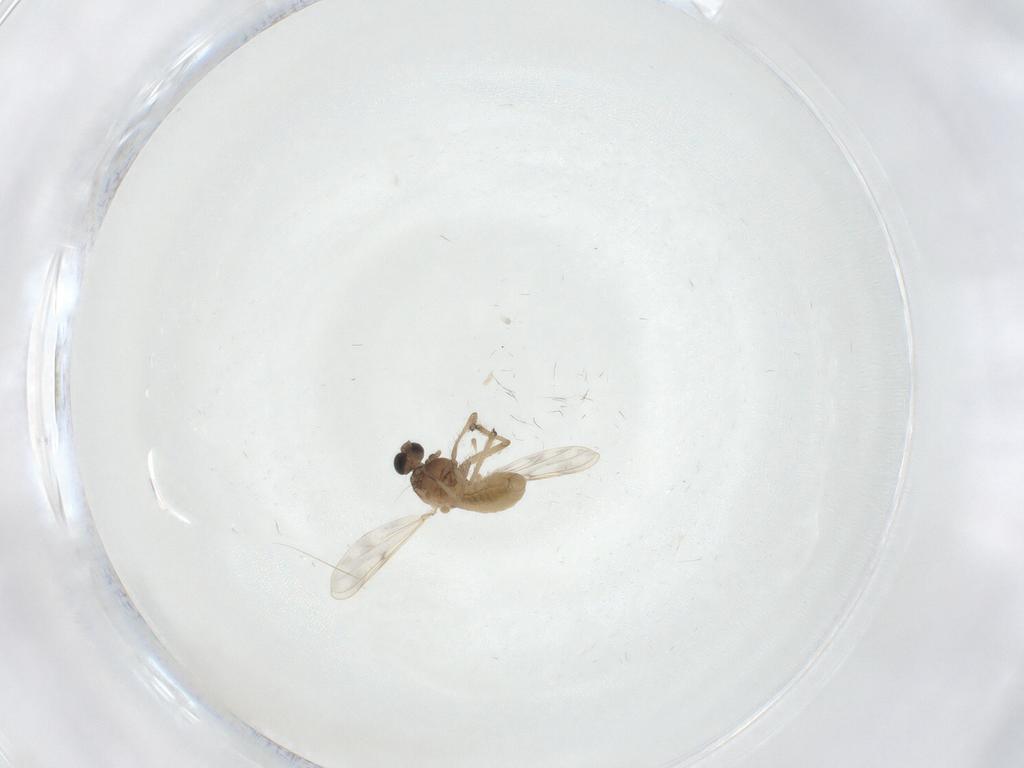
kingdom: Animalia
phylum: Arthropoda
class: Insecta
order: Diptera
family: Chironomidae
